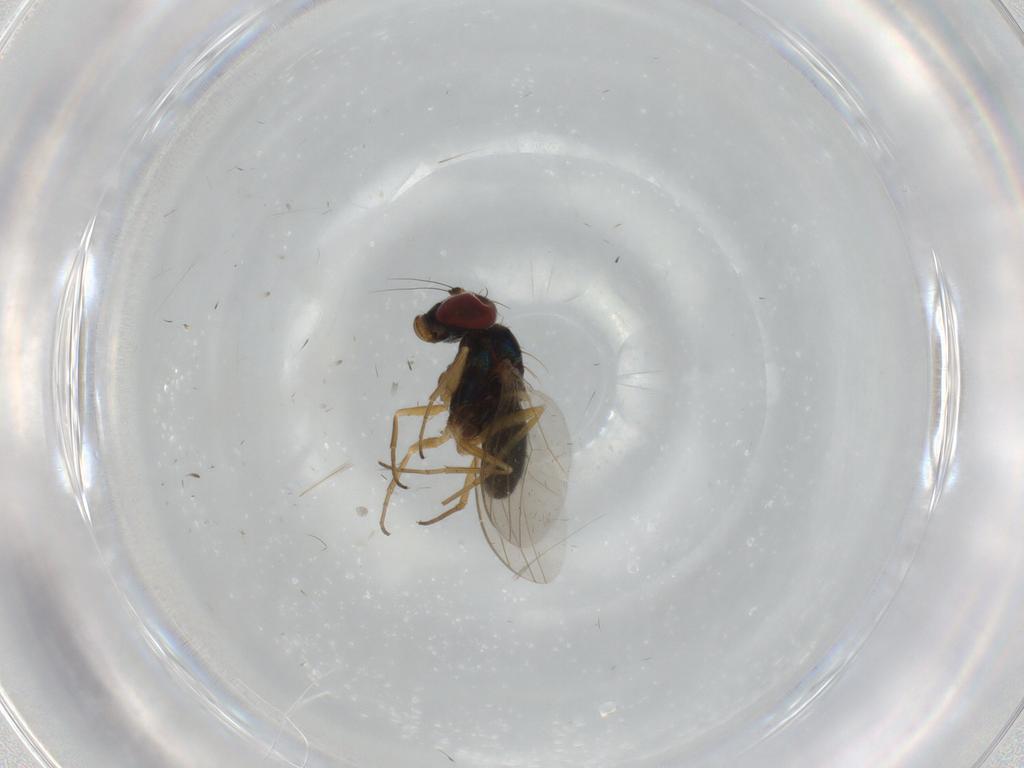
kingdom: Animalia
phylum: Arthropoda
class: Insecta
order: Diptera
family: Dolichopodidae
